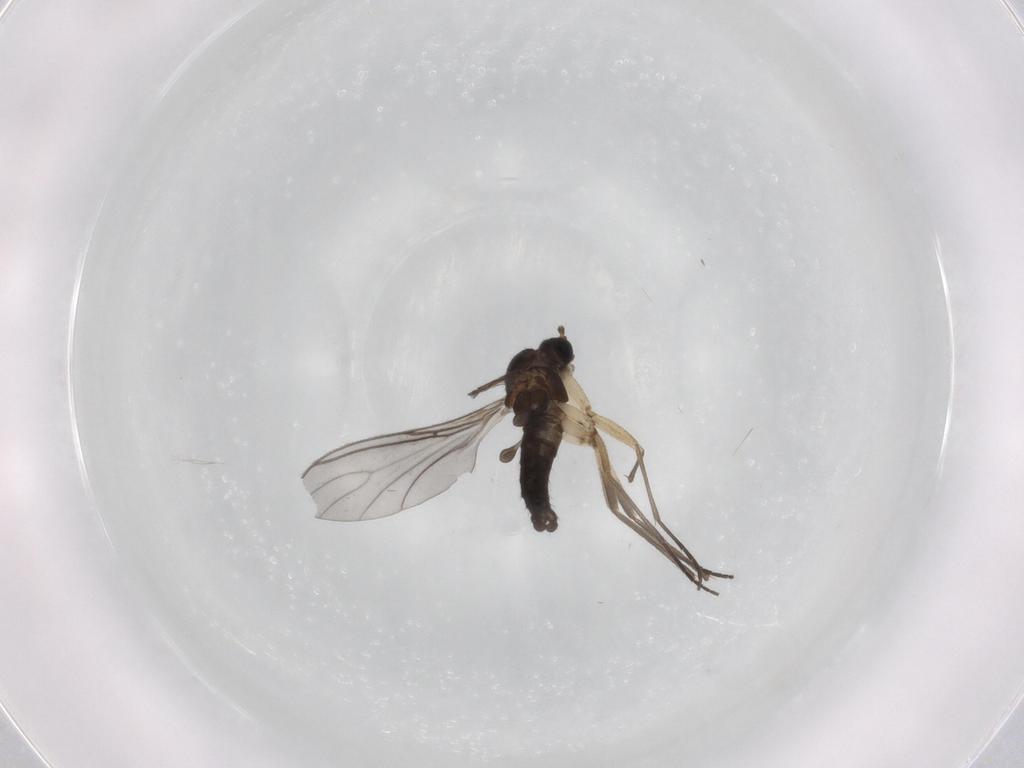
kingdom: Animalia
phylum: Arthropoda
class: Insecta
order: Diptera
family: Sciaridae
